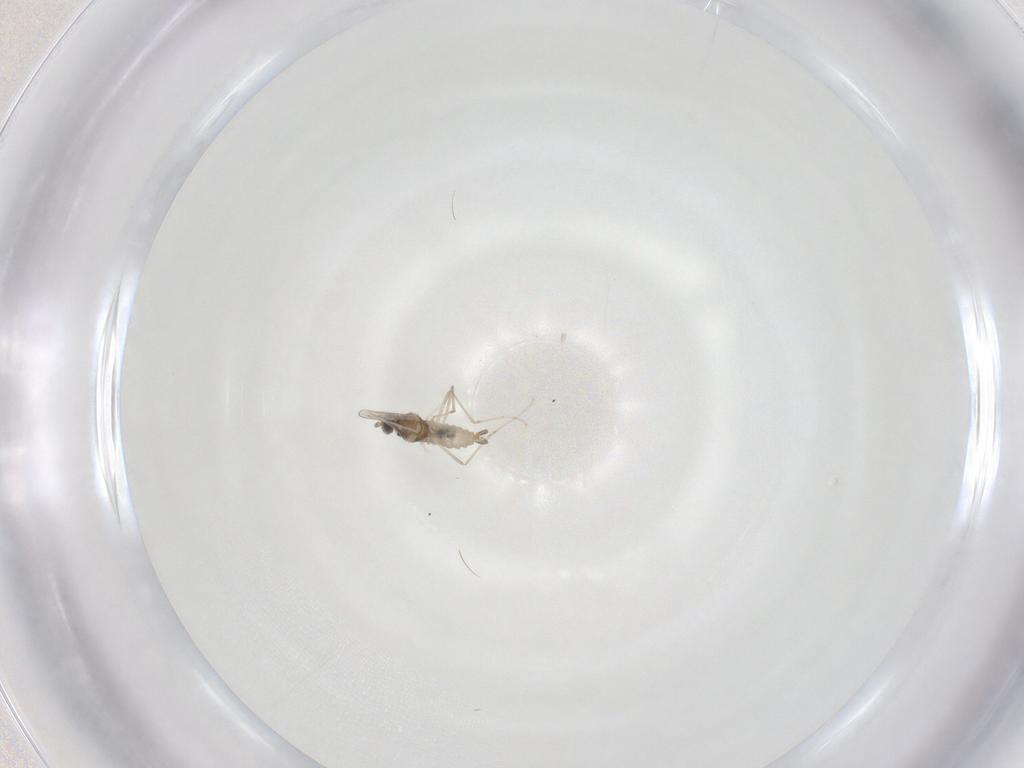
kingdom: Animalia
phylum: Arthropoda
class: Insecta
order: Diptera
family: Cecidomyiidae
